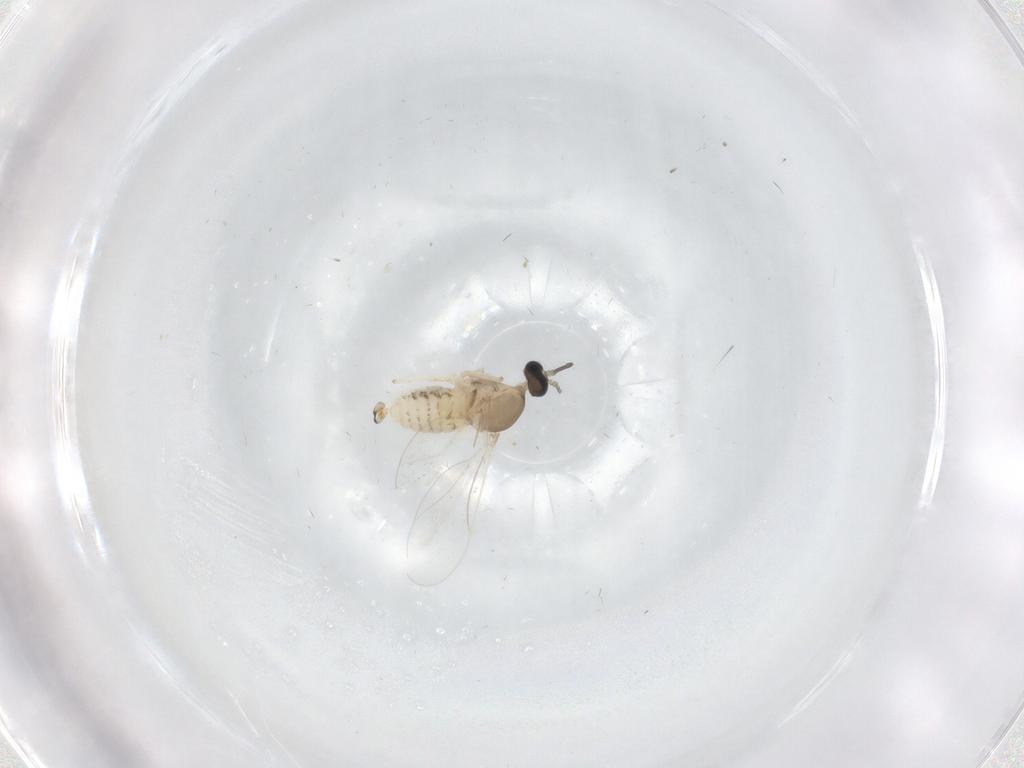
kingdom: Animalia
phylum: Arthropoda
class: Insecta
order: Diptera
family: Cecidomyiidae
